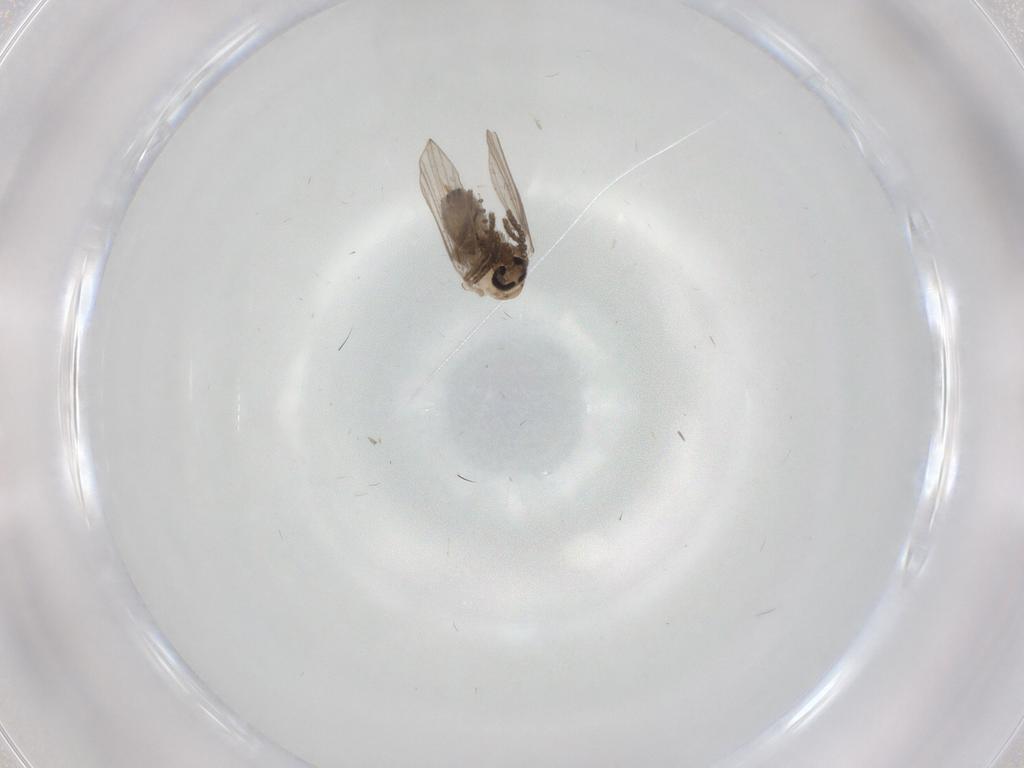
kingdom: Animalia
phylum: Arthropoda
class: Insecta
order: Diptera
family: Psychodidae
